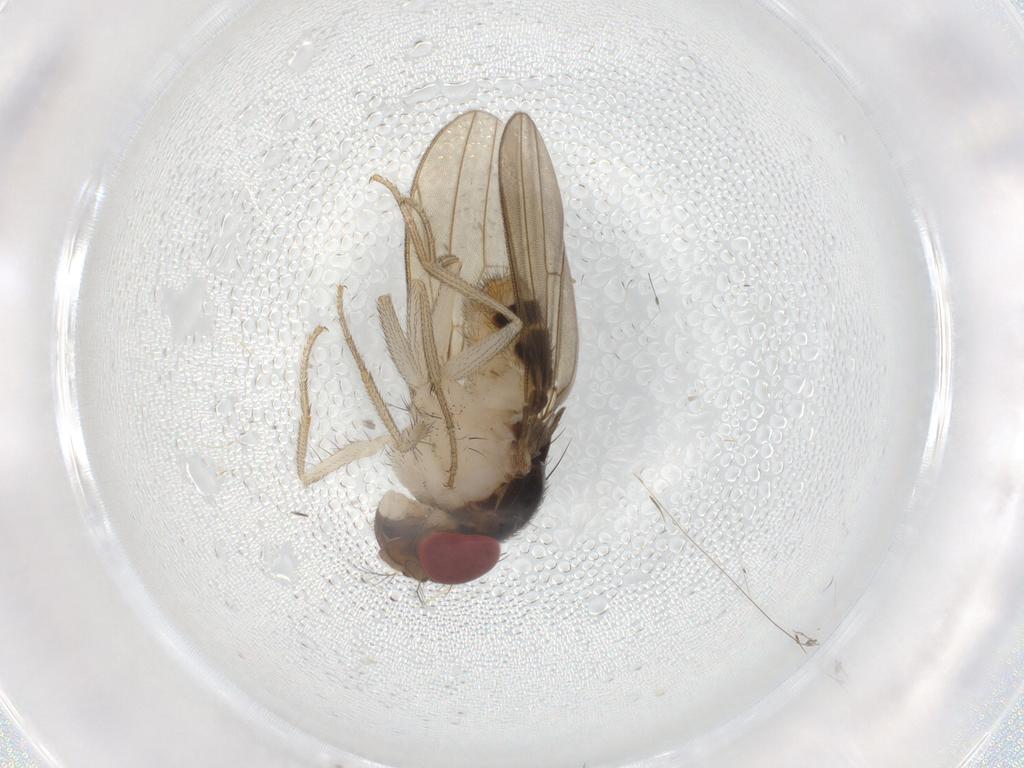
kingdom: Animalia
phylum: Arthropoda
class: Insecta
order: Diptera
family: Drosophilidae
